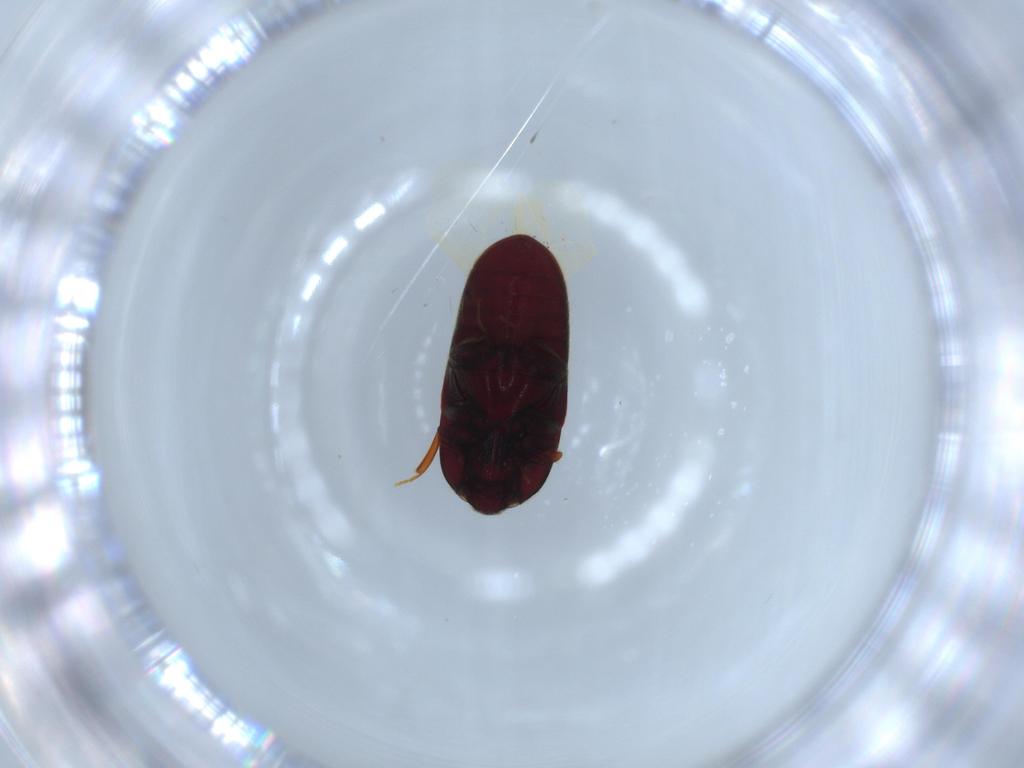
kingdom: Animalia
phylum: Arthropoda
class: Insecta
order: Coleoptera
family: Throscidae
